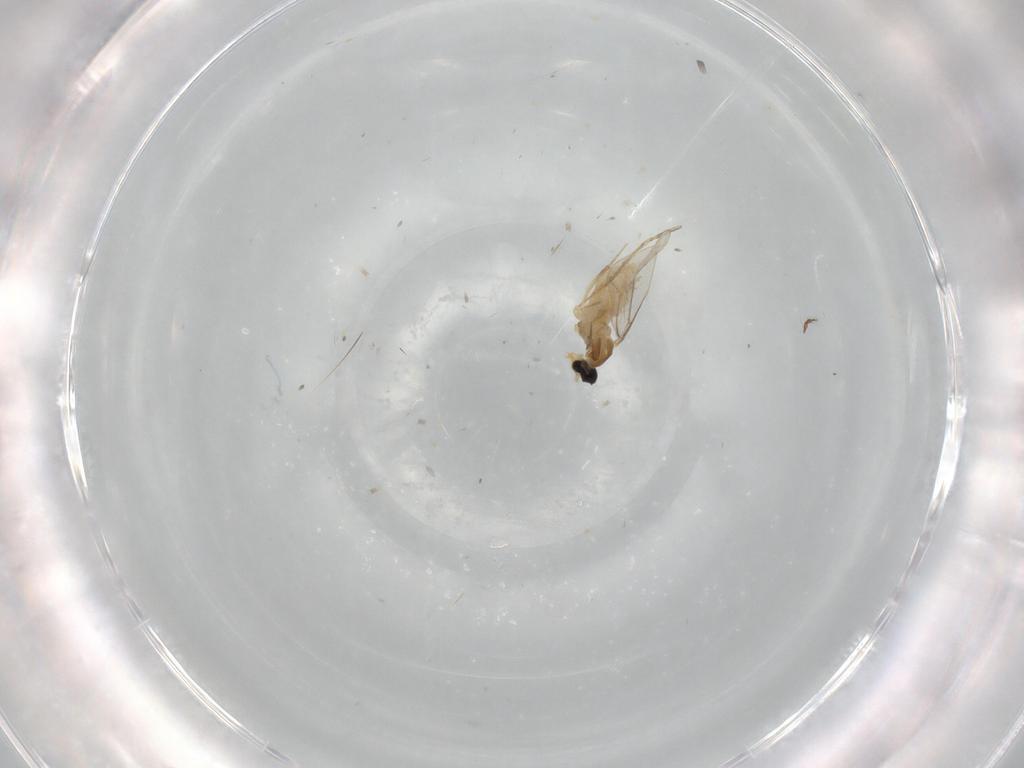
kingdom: Animalia
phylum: Arthropoda
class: Insecta
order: Diptera
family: Cecidomyiidae
